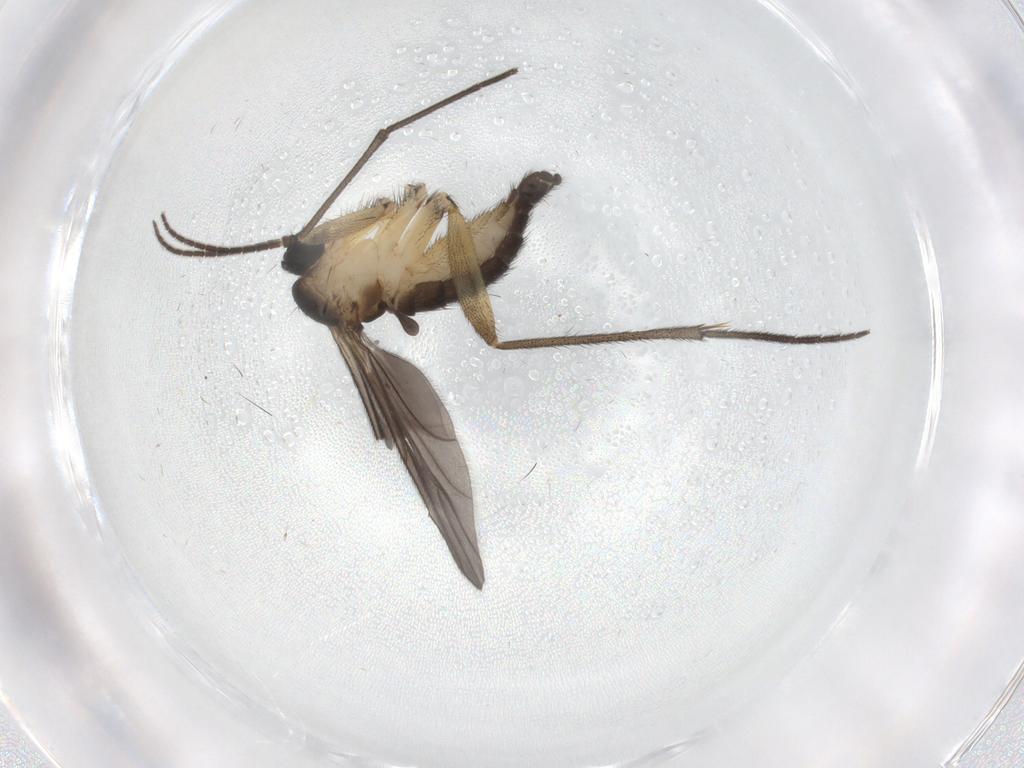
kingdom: Animalia
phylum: Arthropoda
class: Insecta
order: Diptera
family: Sciaridae
